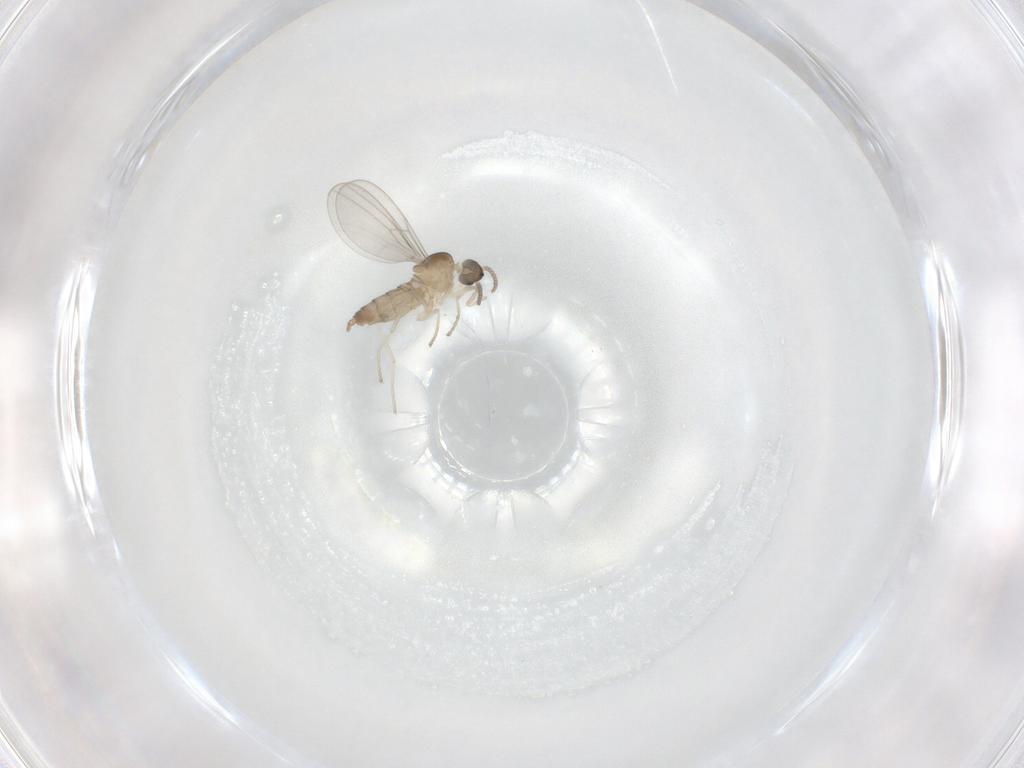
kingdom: Animalia
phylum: Arthropoda
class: Insecta
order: Diptera
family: Cecidomyiidae
